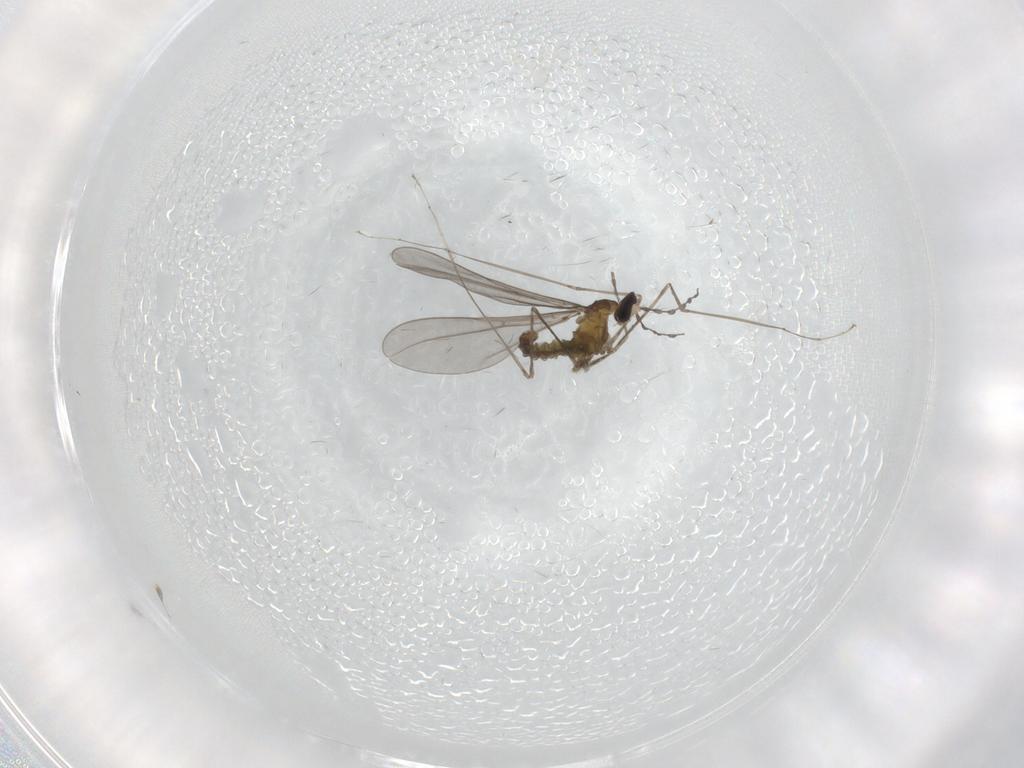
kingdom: Animalia
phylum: Arthropoda
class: Insecta
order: Diptera
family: Cecidomyiidae
